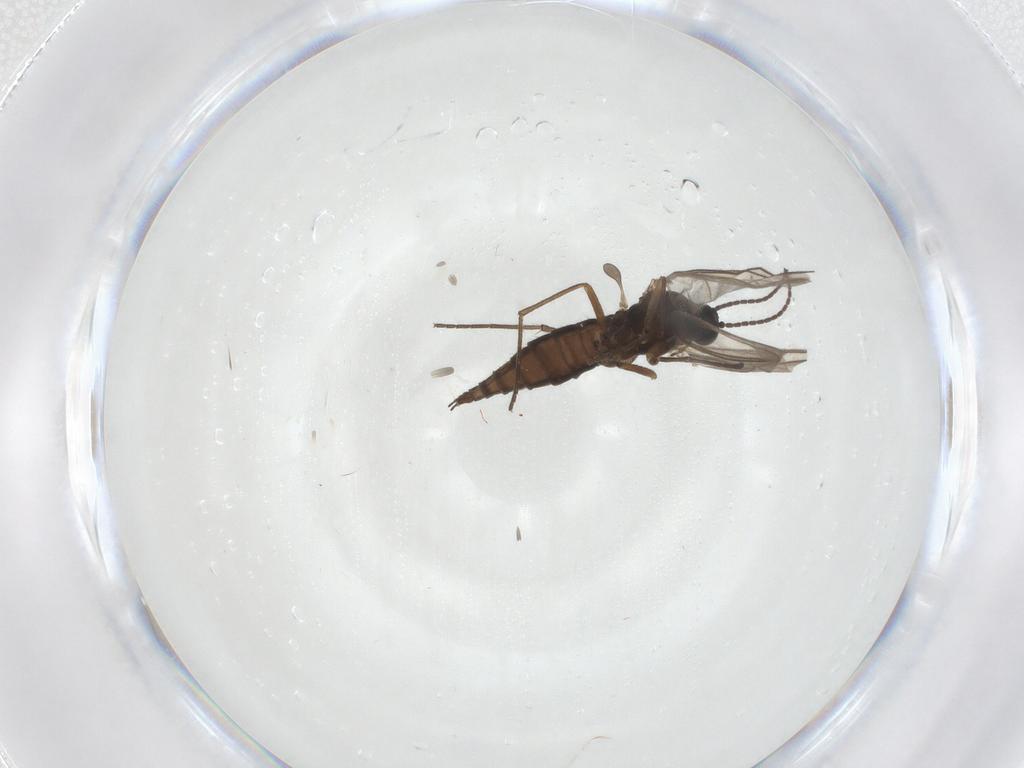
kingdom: Animalia
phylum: Arthropoda
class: Insecta
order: Diptera
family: Sciaridae
